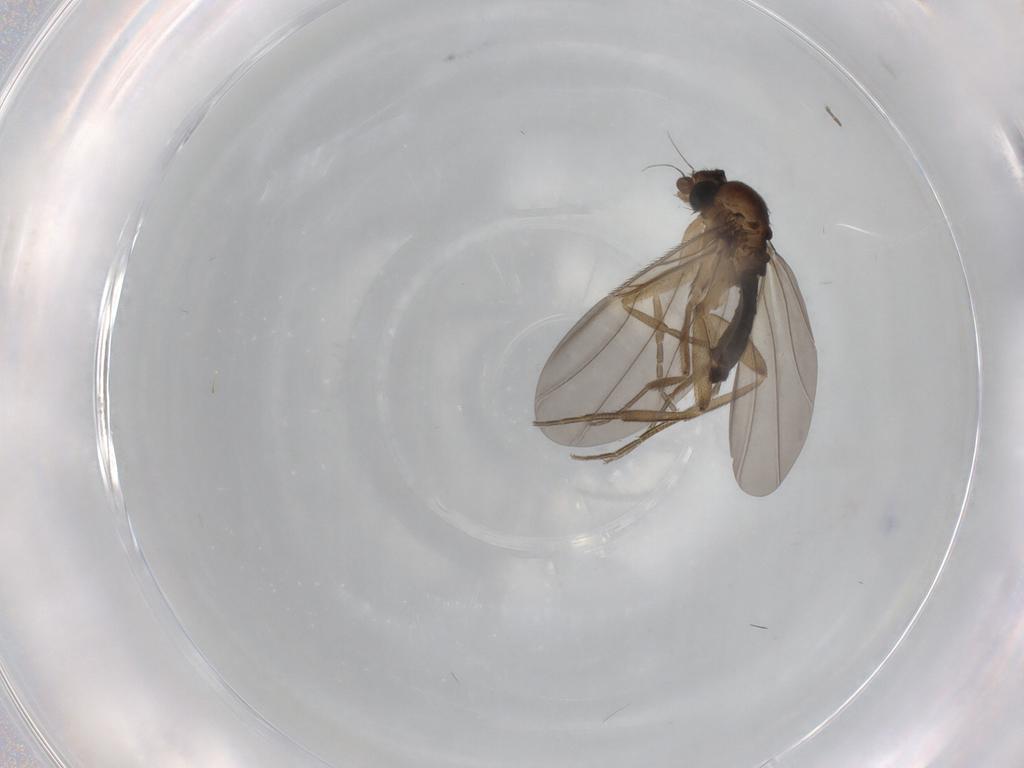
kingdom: Animalia
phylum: Arthropoda
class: Insecta
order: Diptera
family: Phoridae
